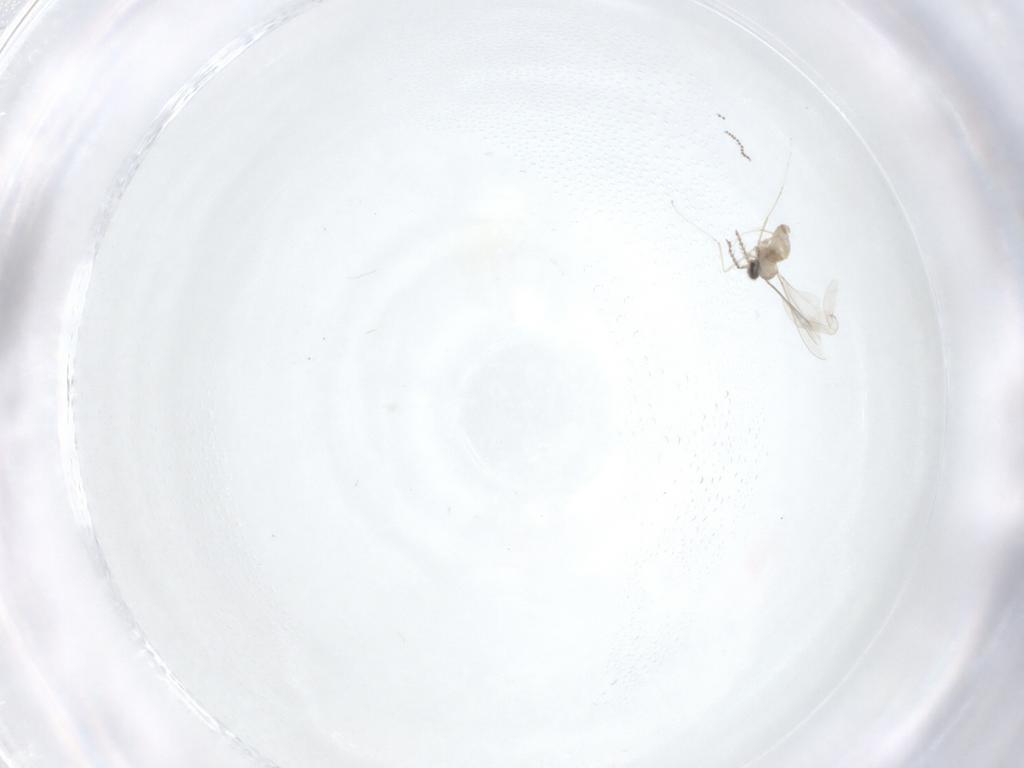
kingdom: Animalia
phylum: Arthropoda
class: Insecta
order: Diptera
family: Cecidomyiidae
